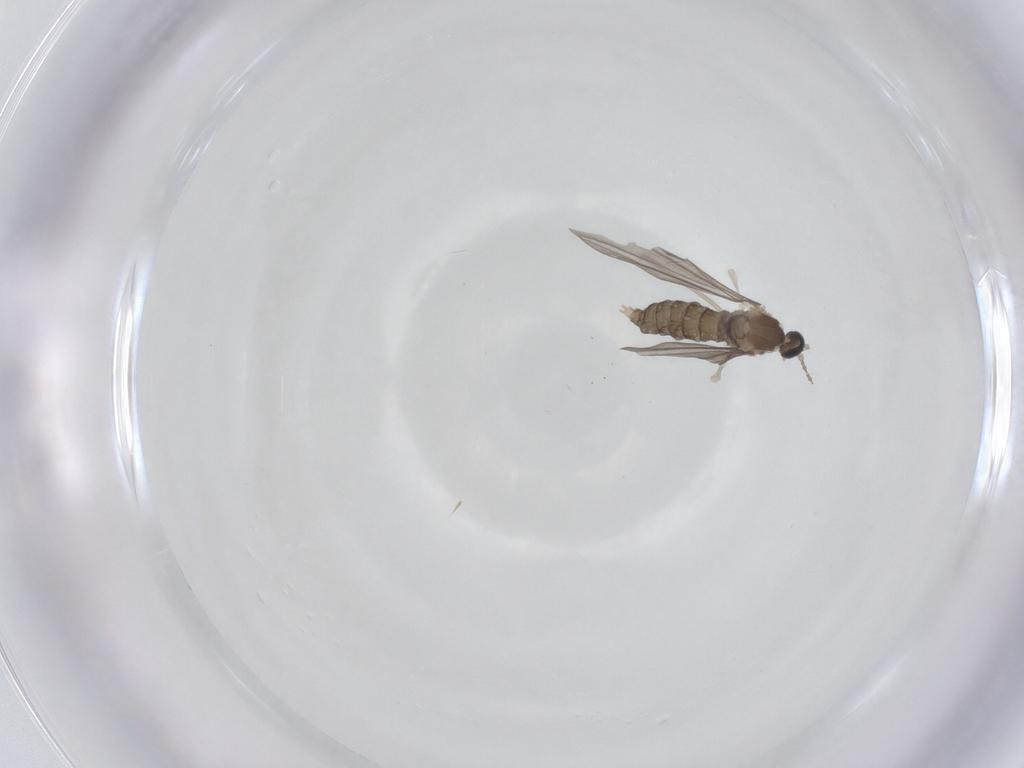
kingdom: Animalia
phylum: Arthropoda
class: Insecta
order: Diptera
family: Cecidomyiidae
